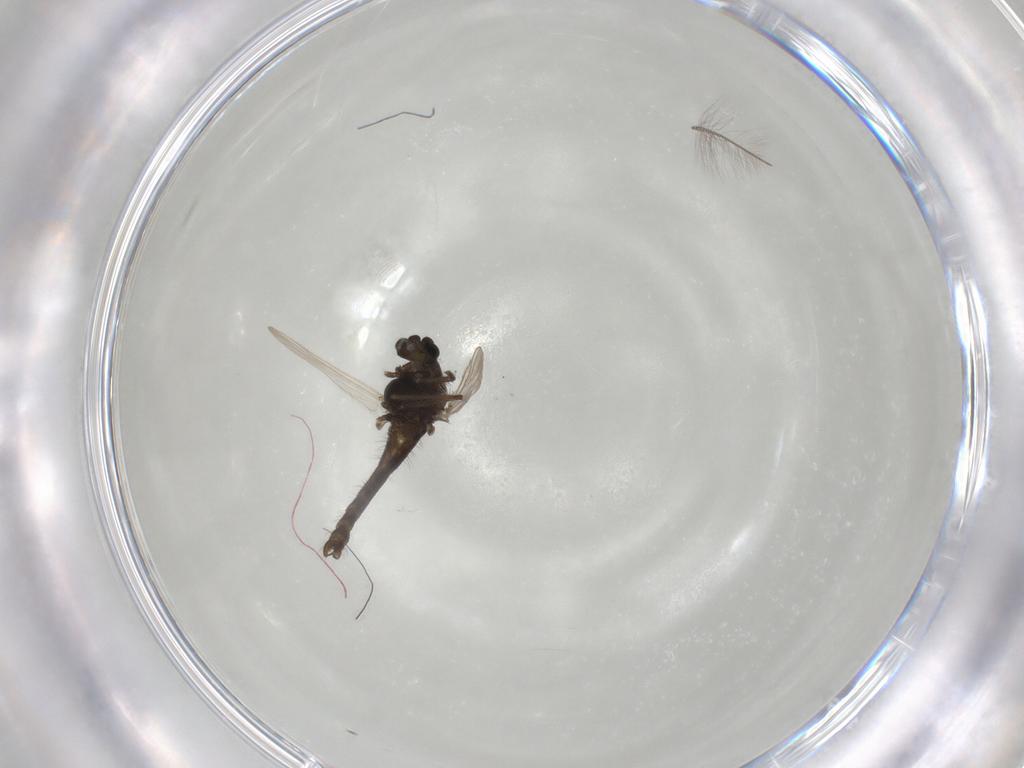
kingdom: Animalia
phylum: Arthropoda
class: Insecta
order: Diptera
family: Chironomidae
